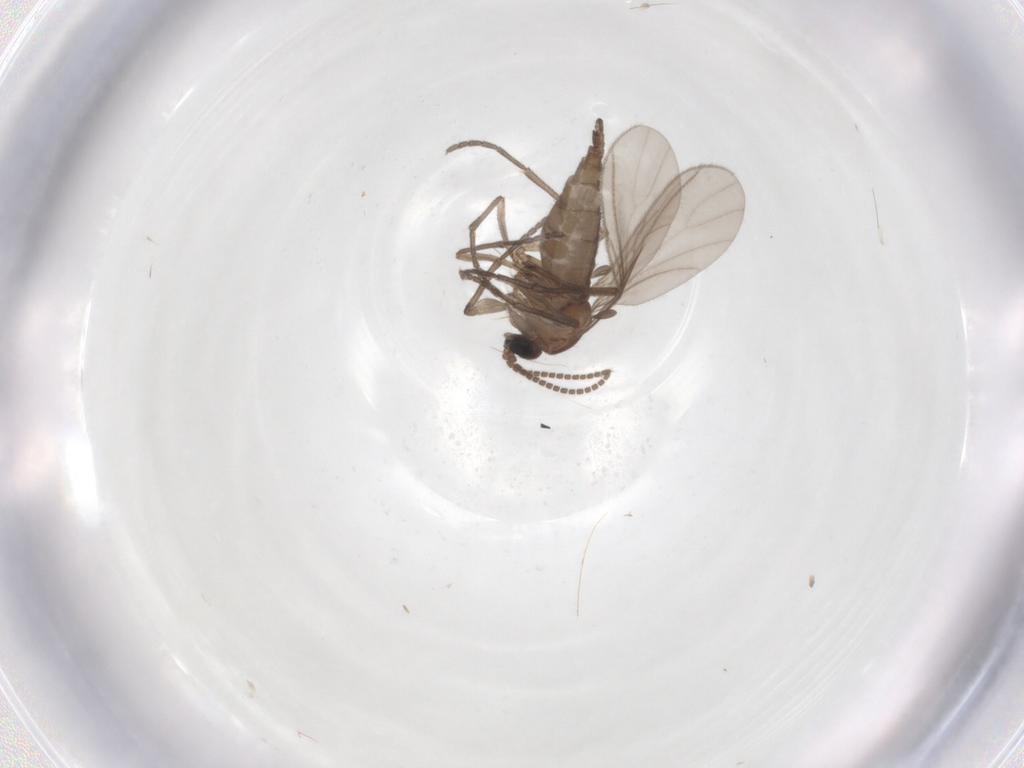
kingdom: Animalia
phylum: Arthropoda
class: Insecta
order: Diptera
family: Sciaridae
